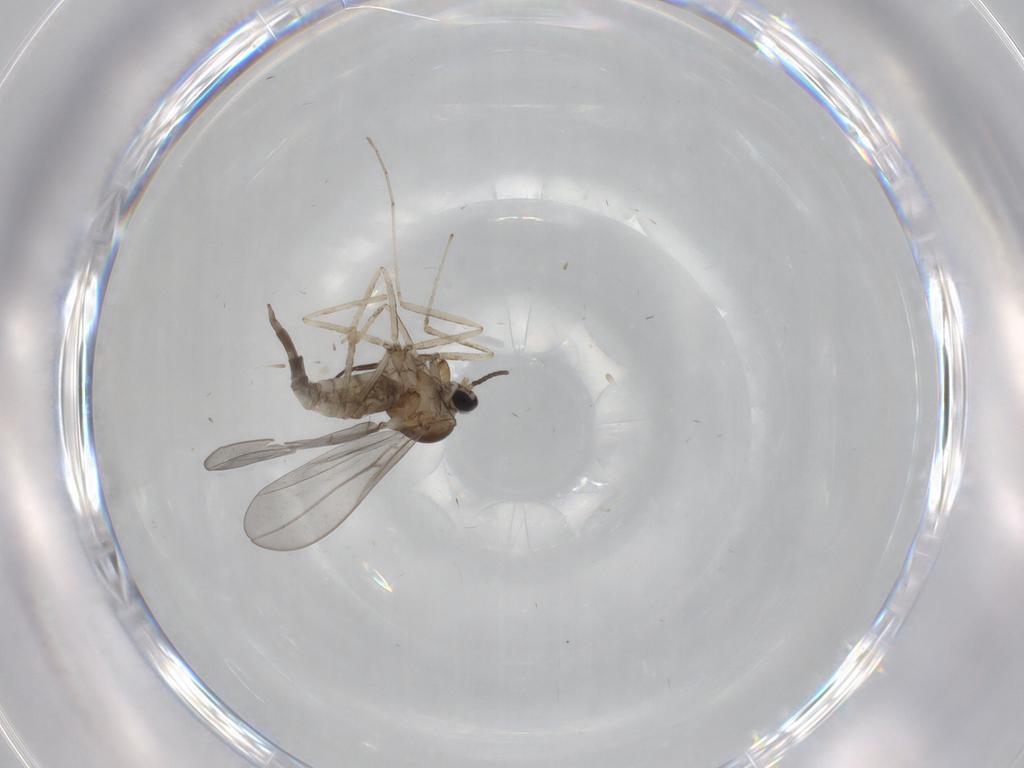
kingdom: Animalia
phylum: Arthropoda
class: Insecta
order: Diptera
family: Cecidomyiidae
